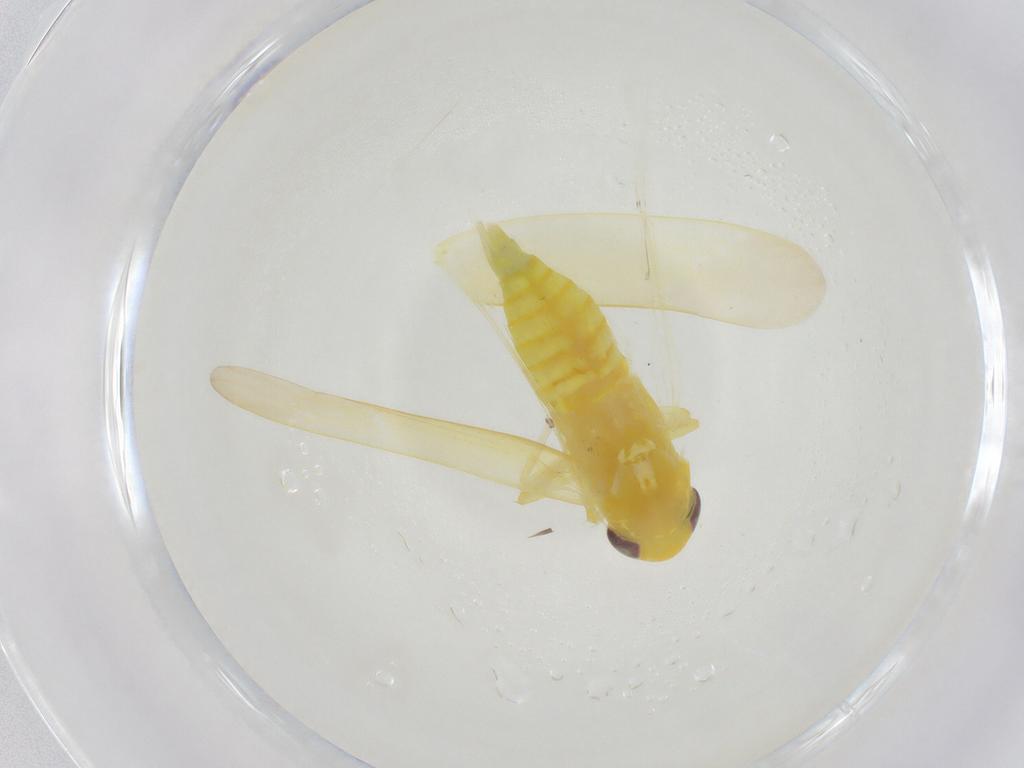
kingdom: Animalia
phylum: Arthropoda
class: Insecta
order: Hemiptera
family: Cicadellidae
